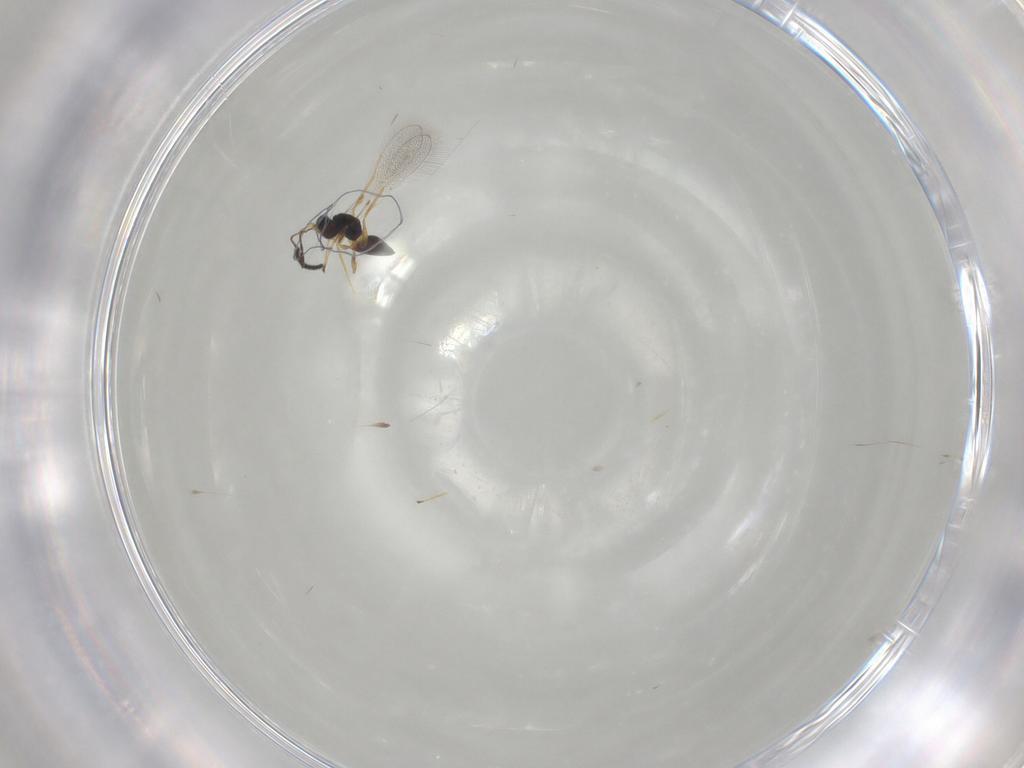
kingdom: Animalia
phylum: Arthropoda
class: Insecta
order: Hymenoptera
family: Mymaridae
